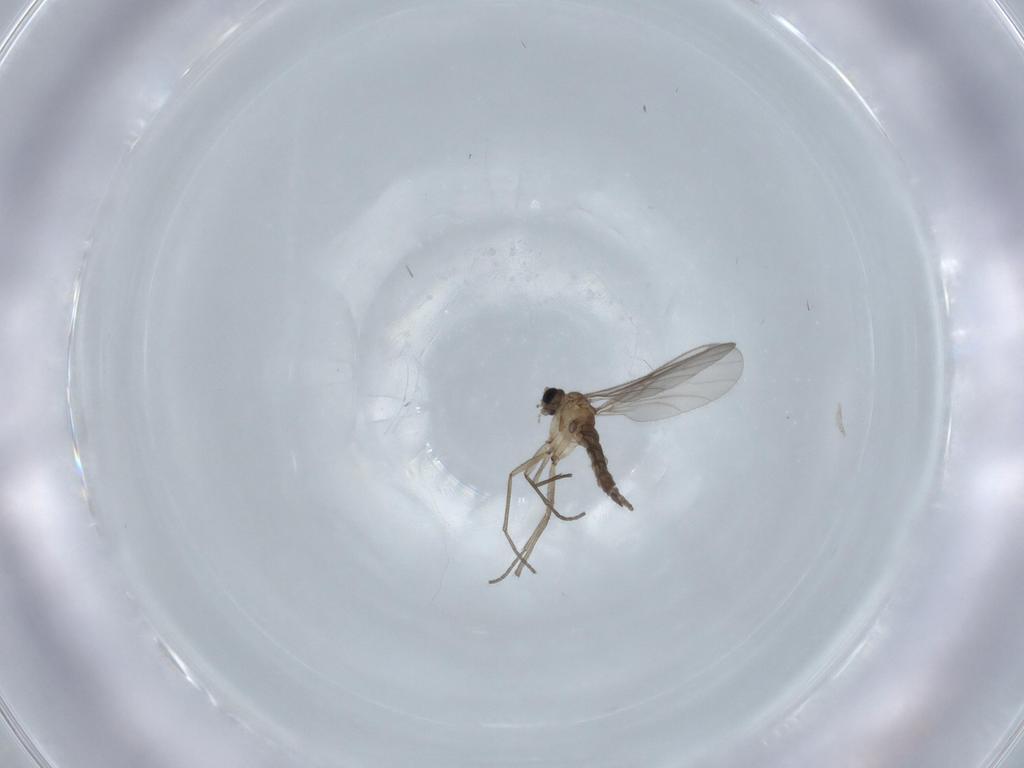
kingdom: Animalia
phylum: Arthropoda
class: Insecta
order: Diptera
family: Sciaridae
